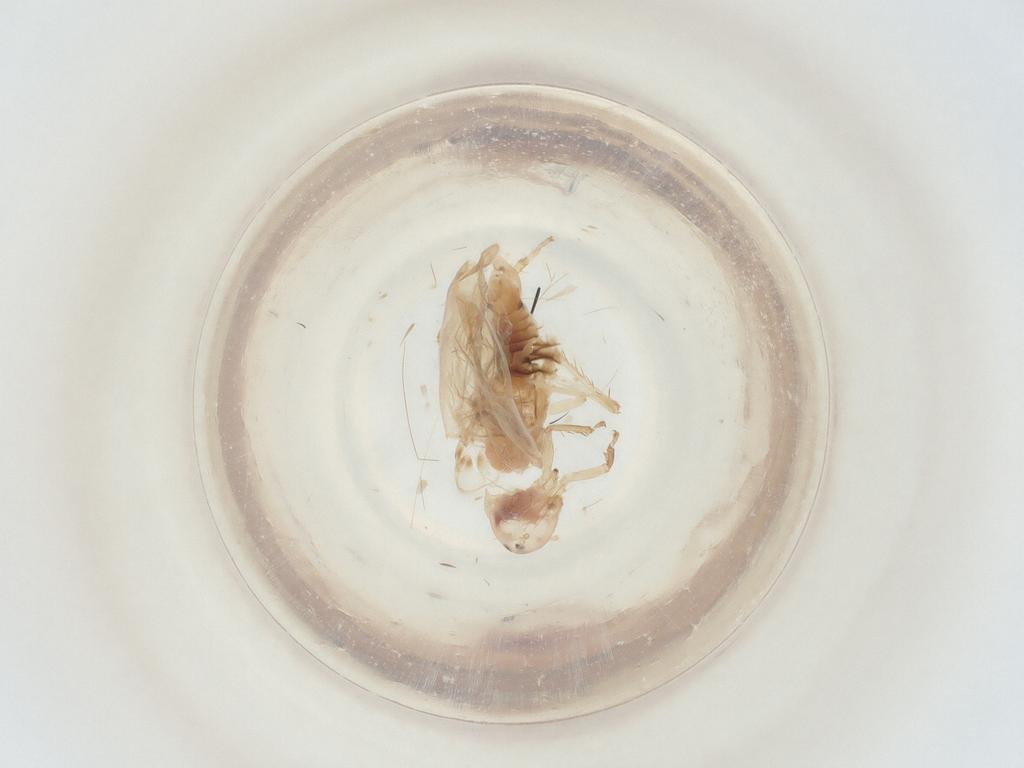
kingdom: Animalia
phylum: Arthropoda
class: Insecta
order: Hemiptera
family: Cicadellidae
